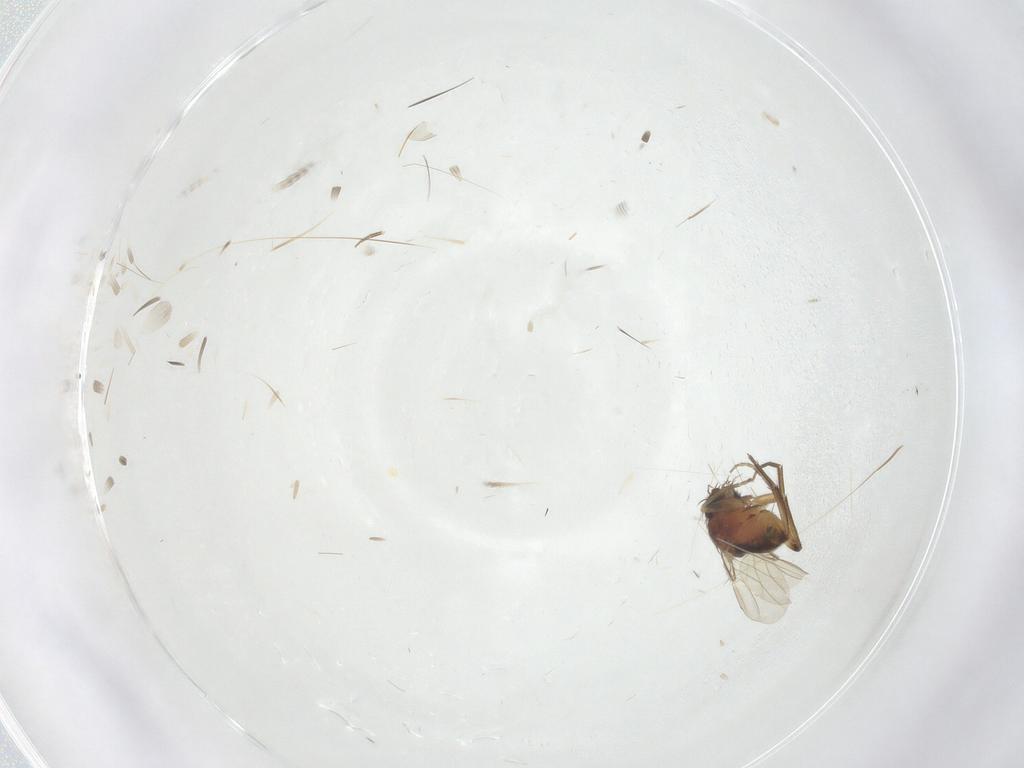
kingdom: Animalia
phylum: Arthropoda
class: Insecta
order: Diptera
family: Phoridae
